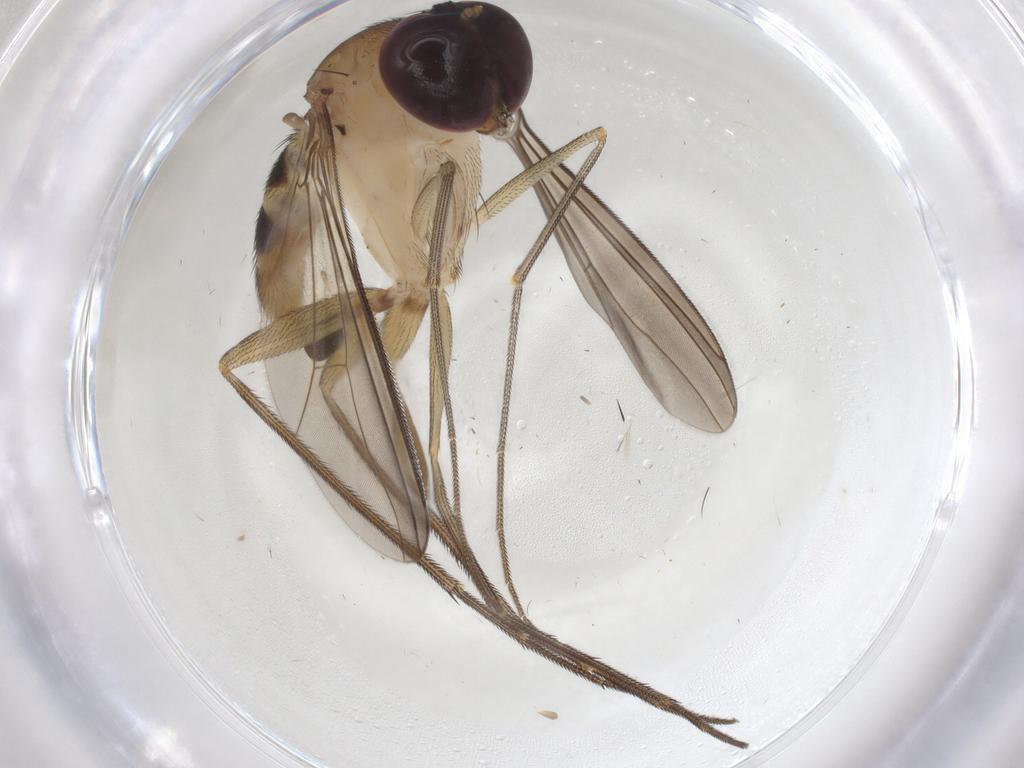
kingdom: Animalia
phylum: Arthropoda
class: Insecta
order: Diptera
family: Dolichopodidae
